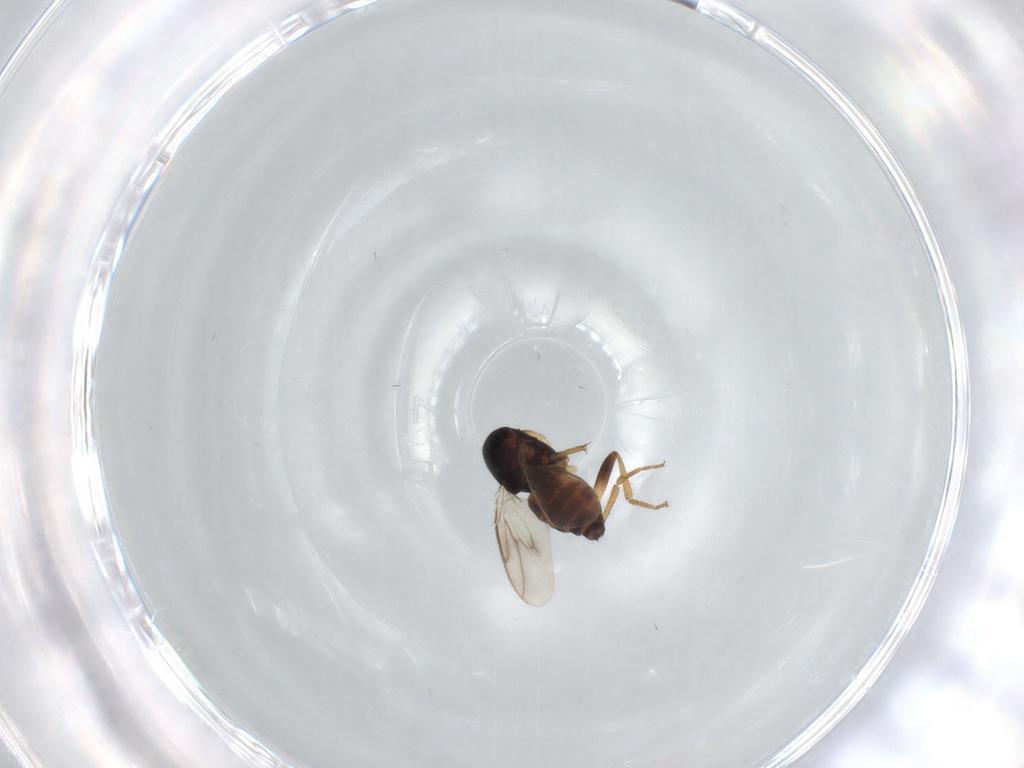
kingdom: Animalia
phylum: Arthropoda
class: Insecta
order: Diptera
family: Sphaeroceridae
